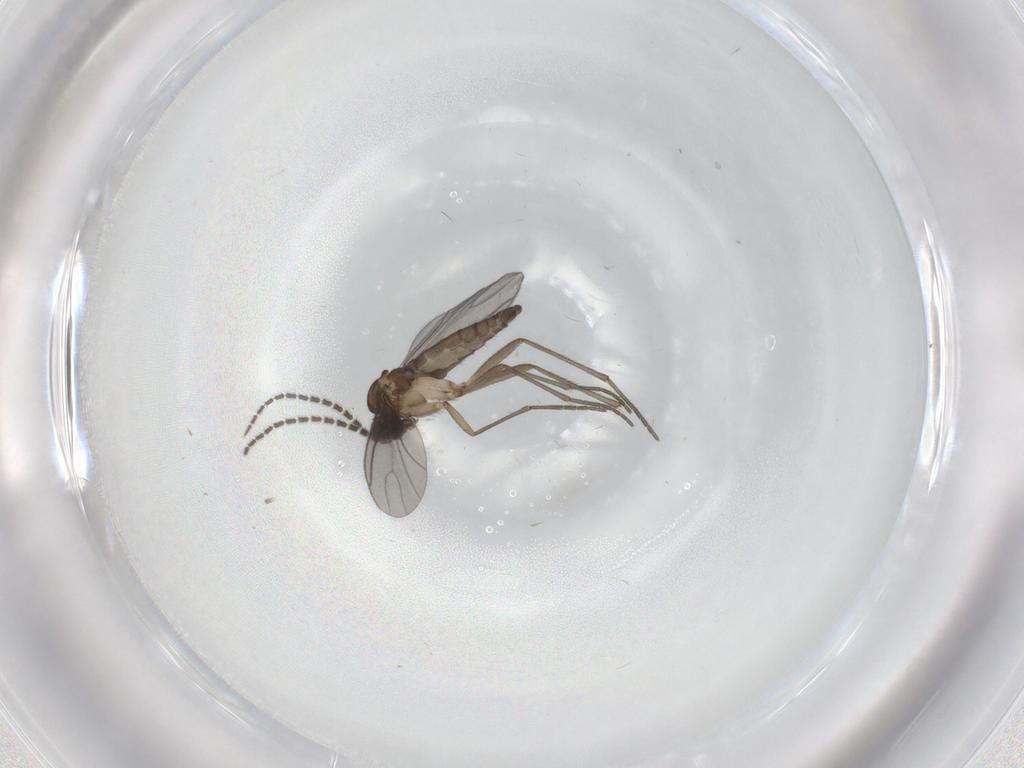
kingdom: Animalia
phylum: Arthropoda
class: Insecta
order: Diptera
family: Sciaridae
